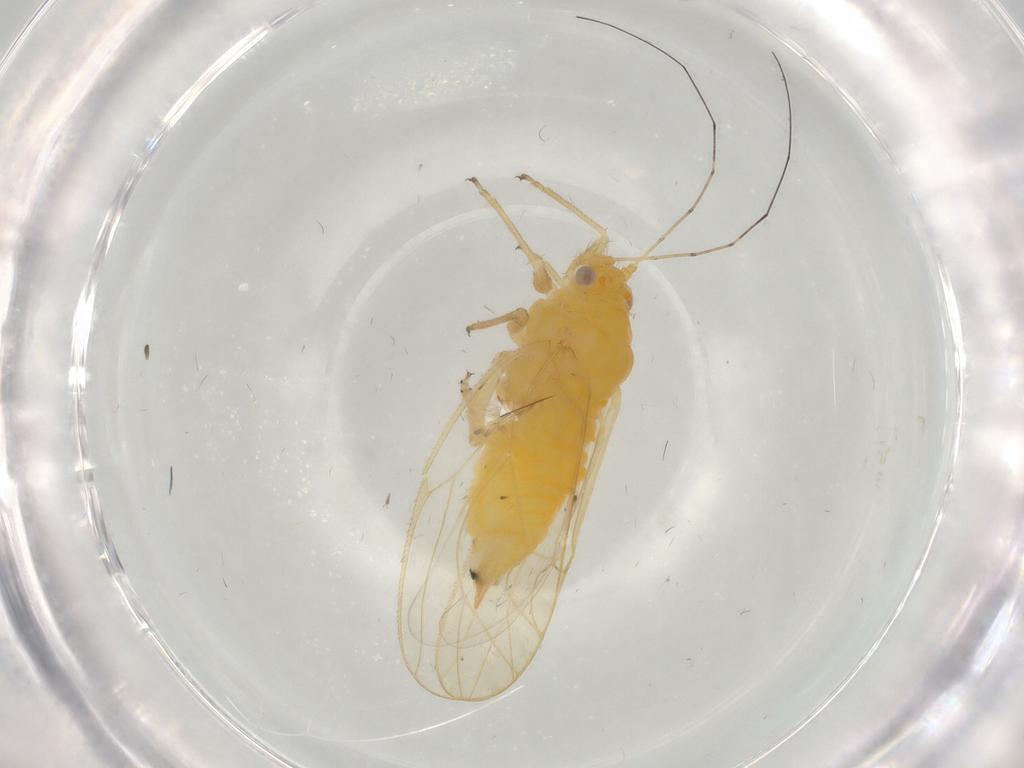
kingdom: Animalia
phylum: Arthropoda
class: Insecta
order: Hemiptera
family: Psyllidae
